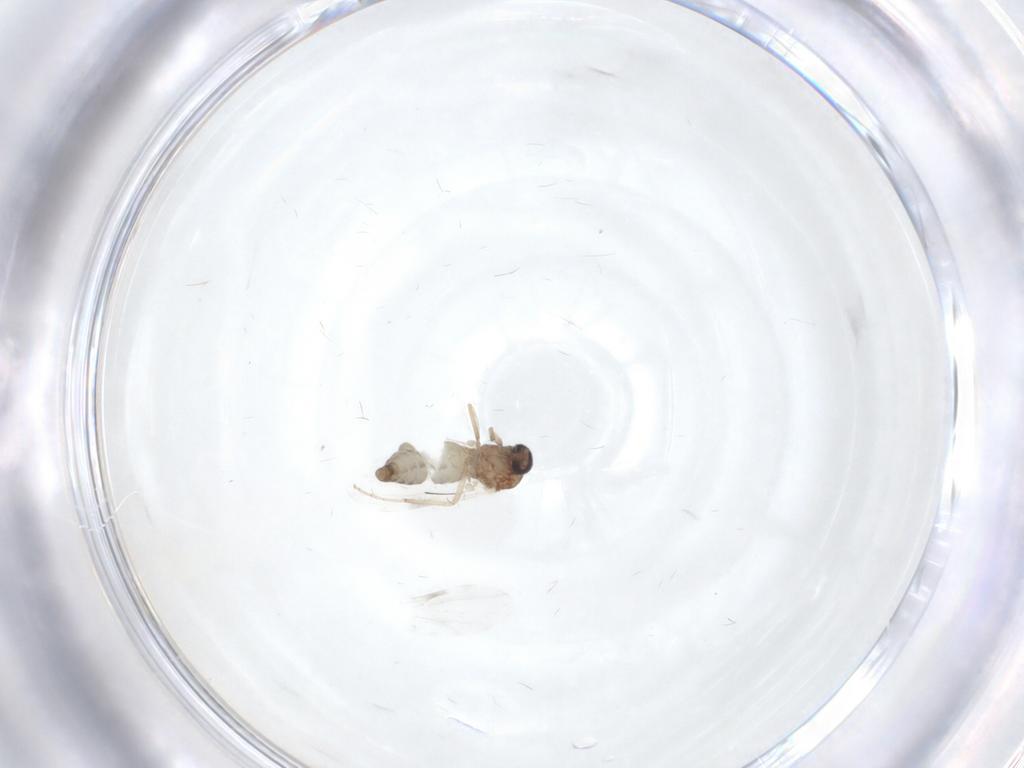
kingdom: Animalia
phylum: Arthropoda
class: Insecta
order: Diptera
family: Ceratopogonidae
